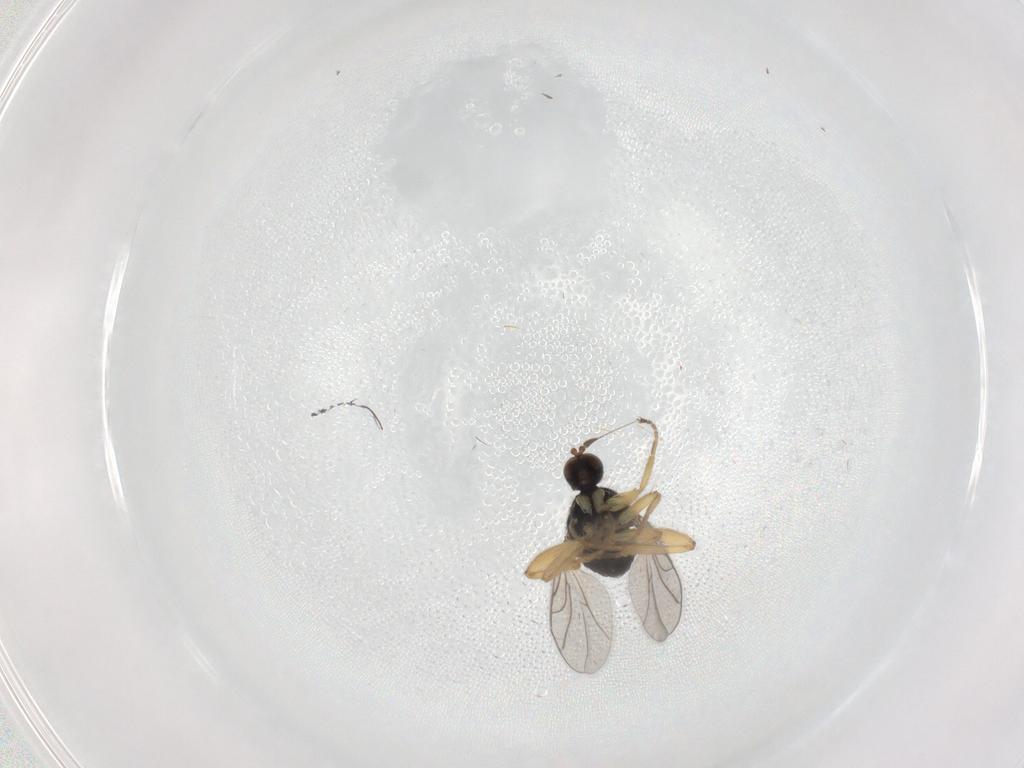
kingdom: Animalia
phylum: Arthropoda
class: Insecta
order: Diptera
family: Hybotidae
